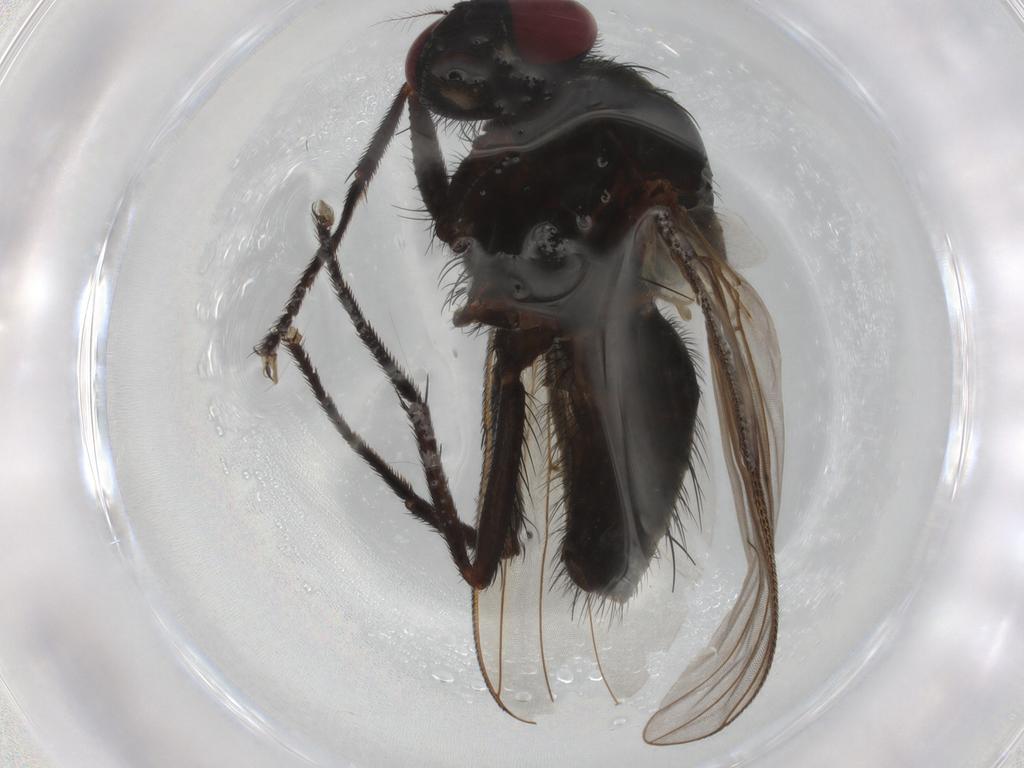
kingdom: Animalia
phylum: Arthropoda
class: Insecta
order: Diptera
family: Muscidae
